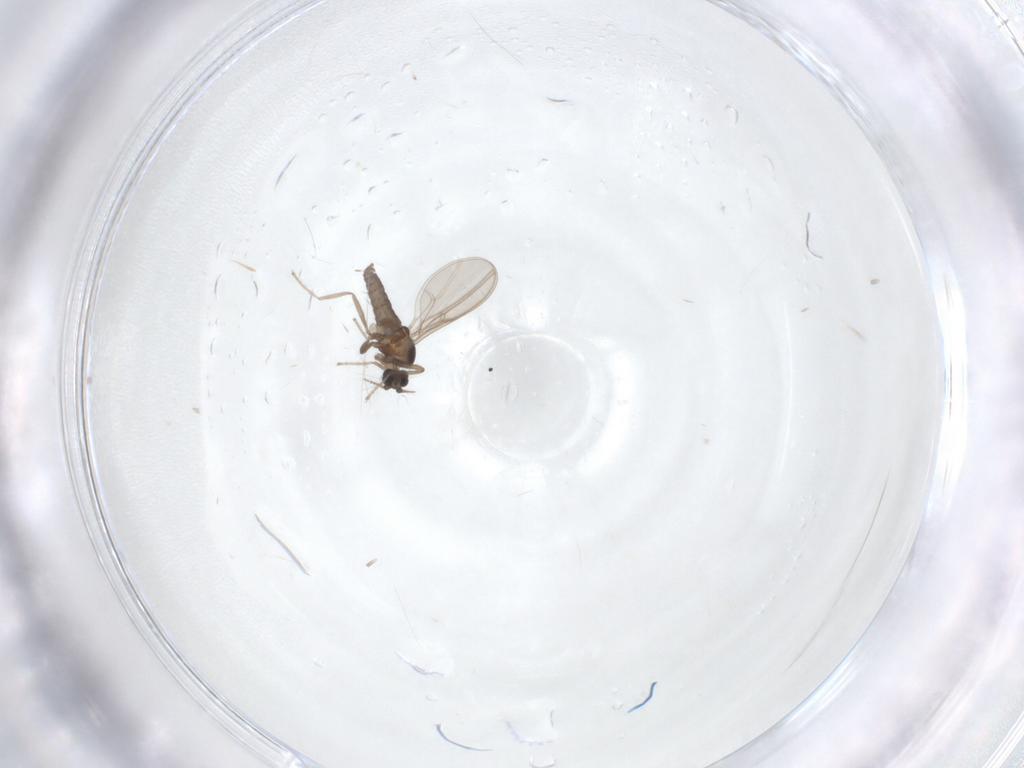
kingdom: Animalia
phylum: Arthropoda
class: Insecta
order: Diptera
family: Cecidomyiidae
